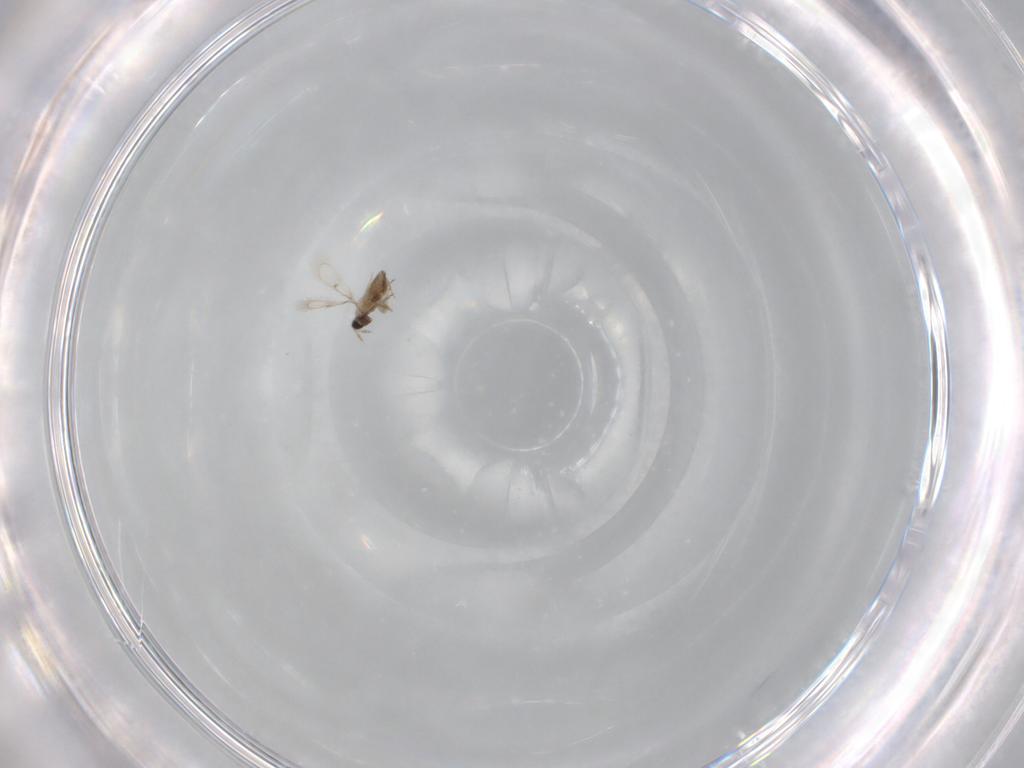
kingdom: Animalia
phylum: Arthropoda
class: Insecta
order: Hymenoptera
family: Trichogrammatidae
